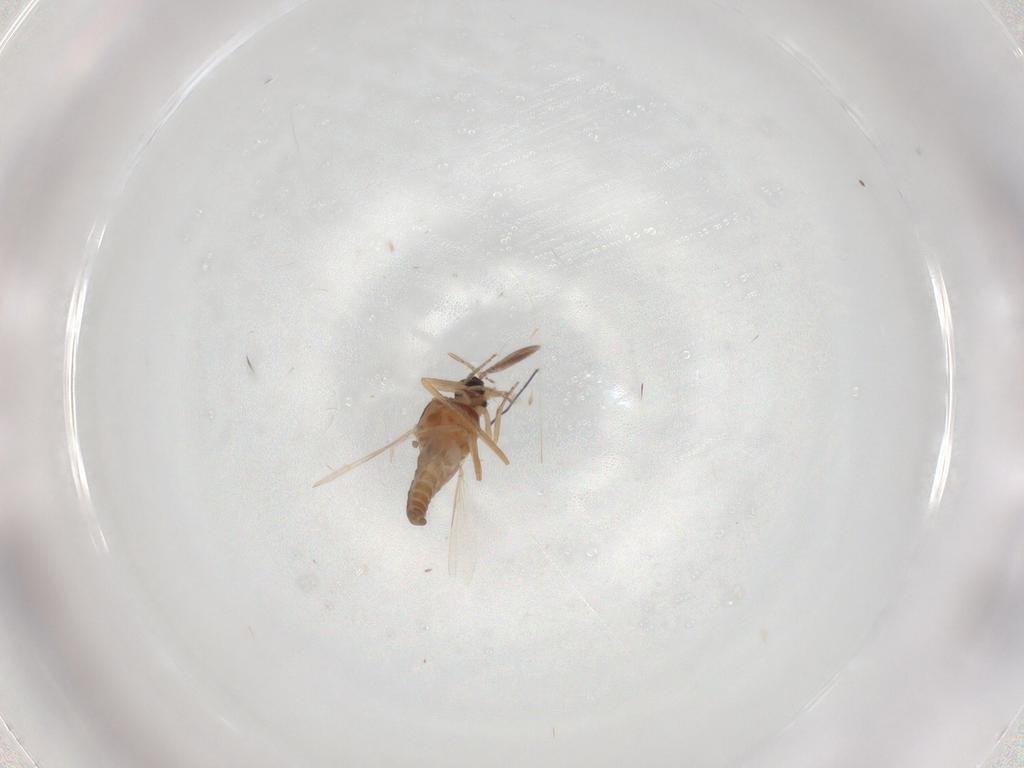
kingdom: Animalia
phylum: Arthropoda
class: Insecta
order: Diptera
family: Ceratopogonidae
